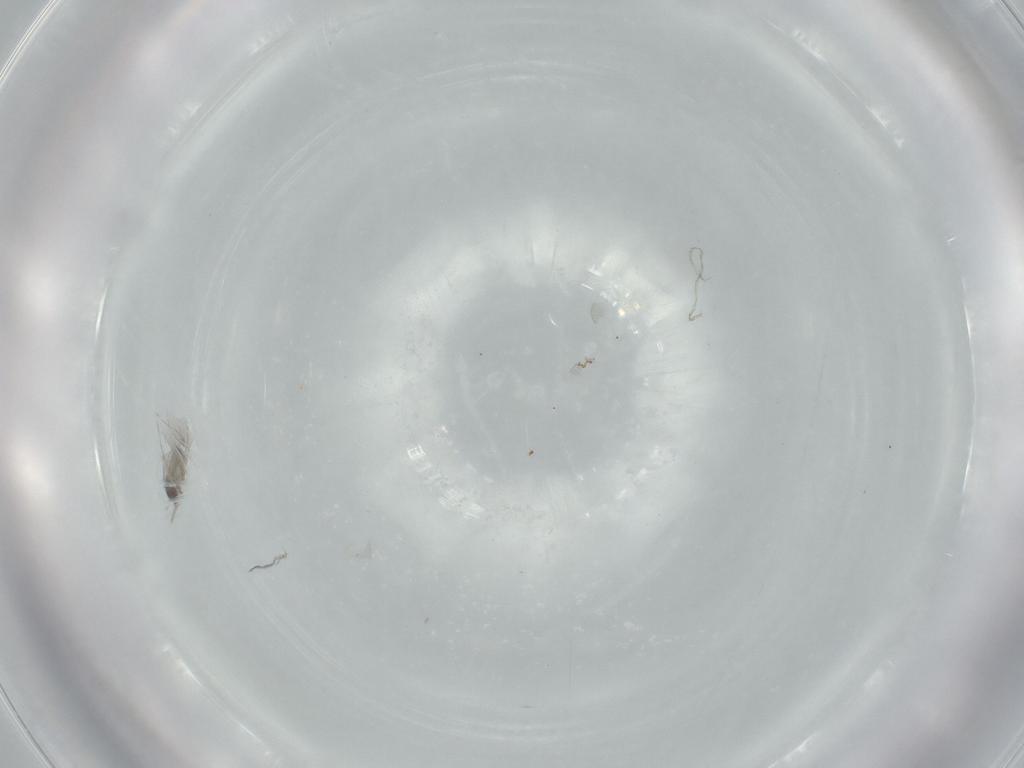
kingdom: Animalia
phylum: Arthropoda
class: Insecta
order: Diptera
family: Cecidomyiidae
